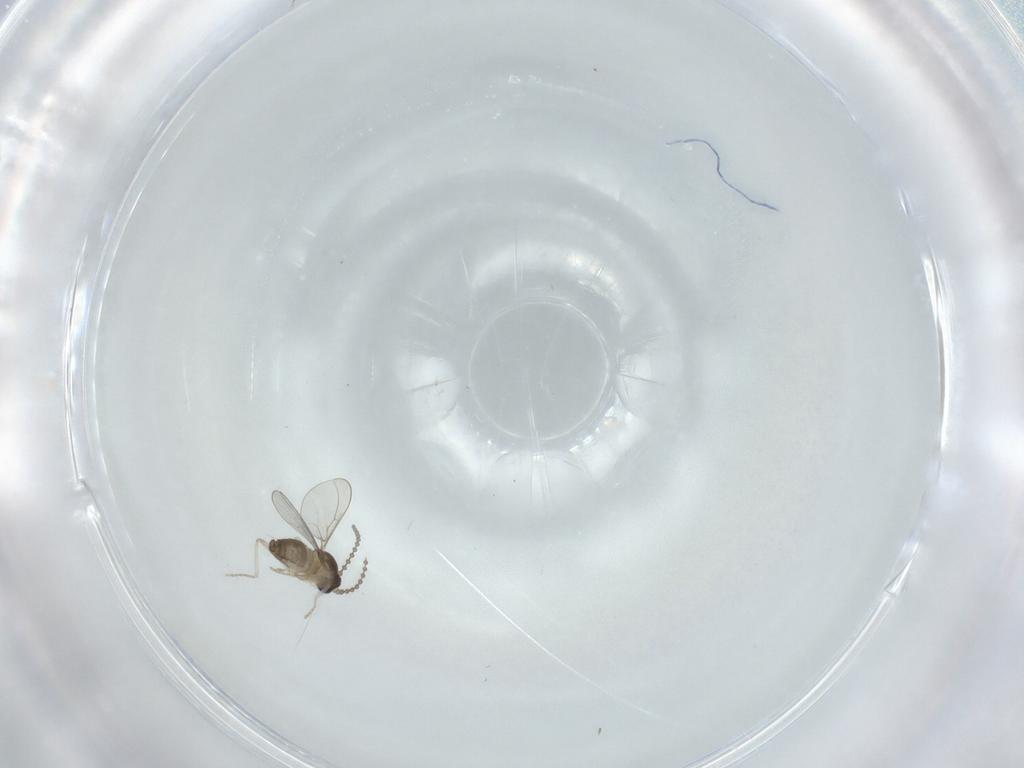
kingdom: Animalia
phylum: Arthropoda
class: Insecta
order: Diptera
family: Cecidomyiidae
